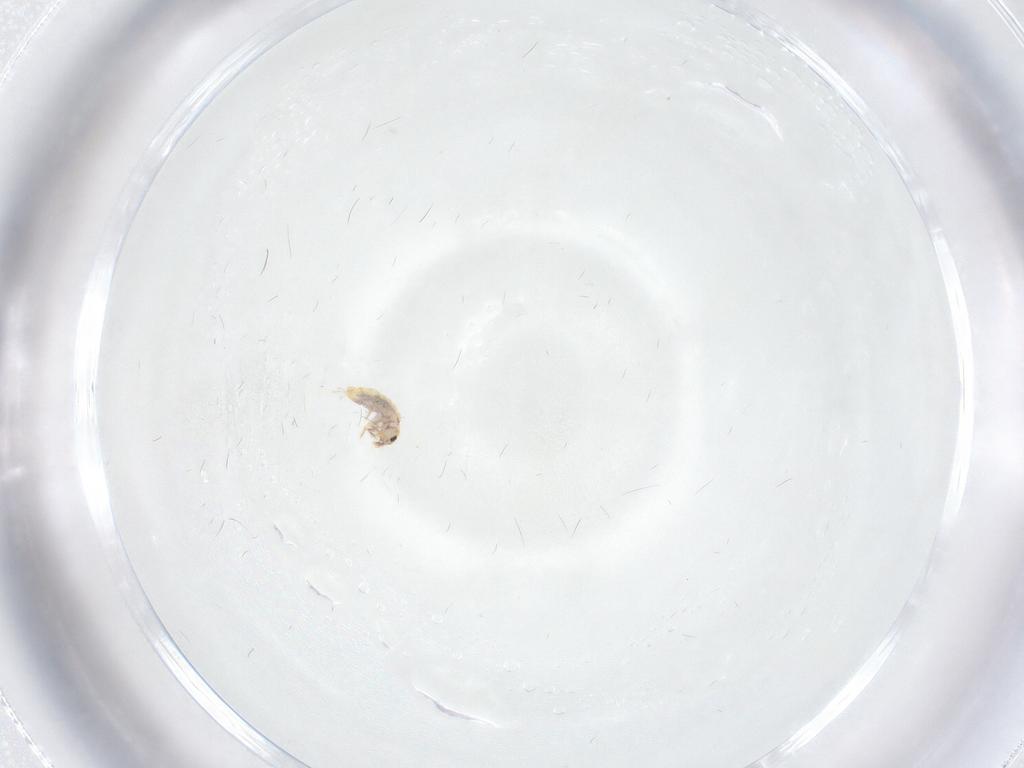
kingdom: Animalia
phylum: Arthropoda
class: Collembola
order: Entomobryomorpha
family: Entomobryidae
